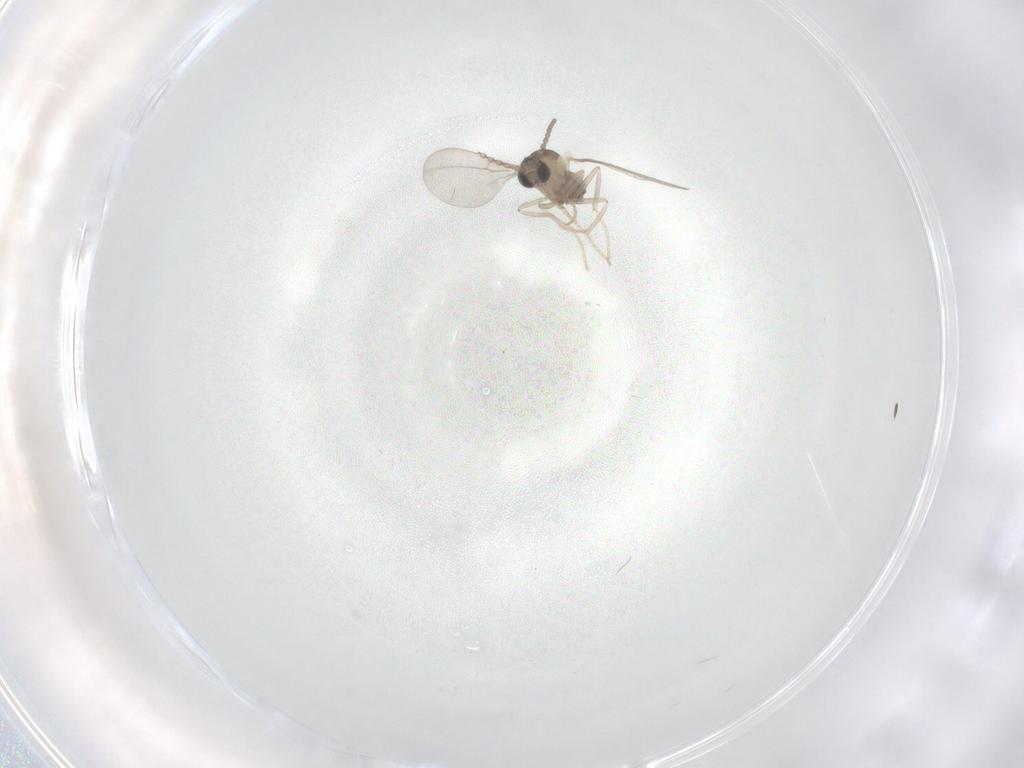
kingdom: Animalia
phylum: Arthropoda
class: Insecta
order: Diptera
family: Cecidomyiidae
